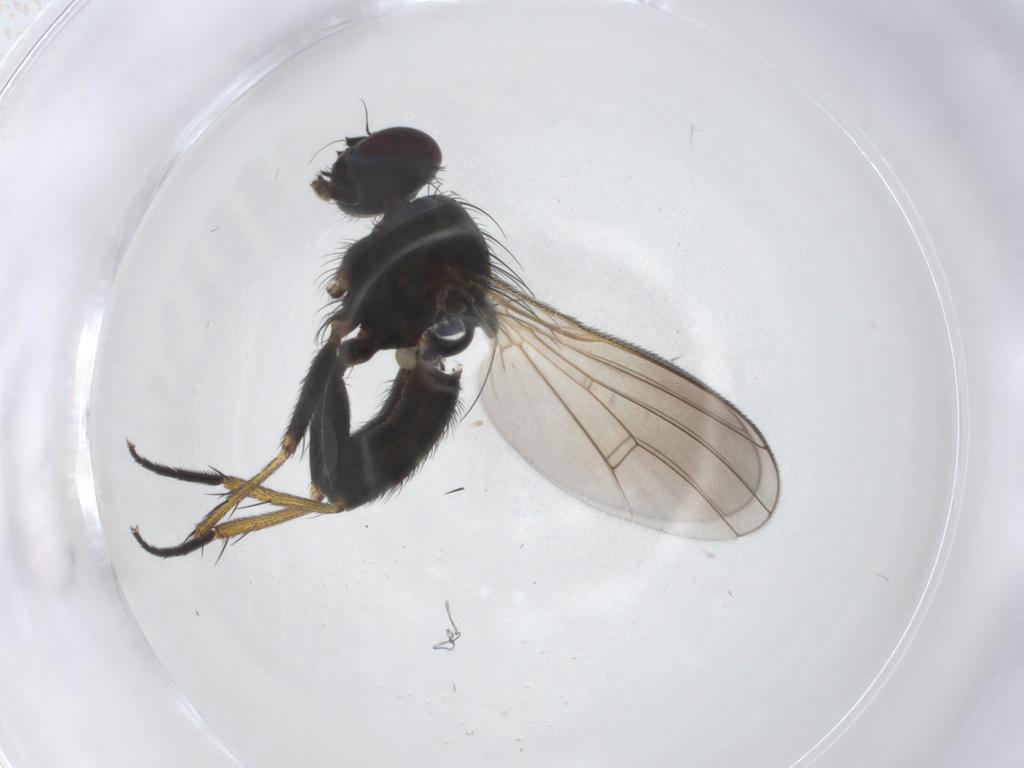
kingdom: Animalia
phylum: Arthropoda
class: Insecta
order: Diptera
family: Muscidae
